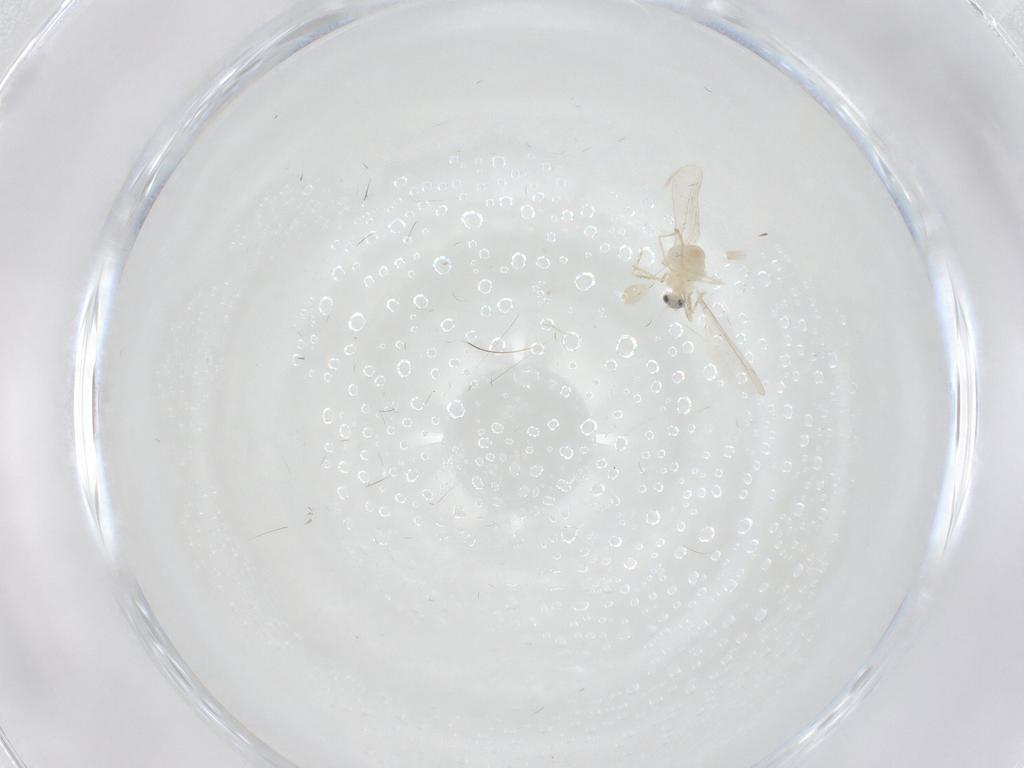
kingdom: Animalia
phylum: Arthropoda
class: Insecta
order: Diptera
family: Cecidomyiidae
